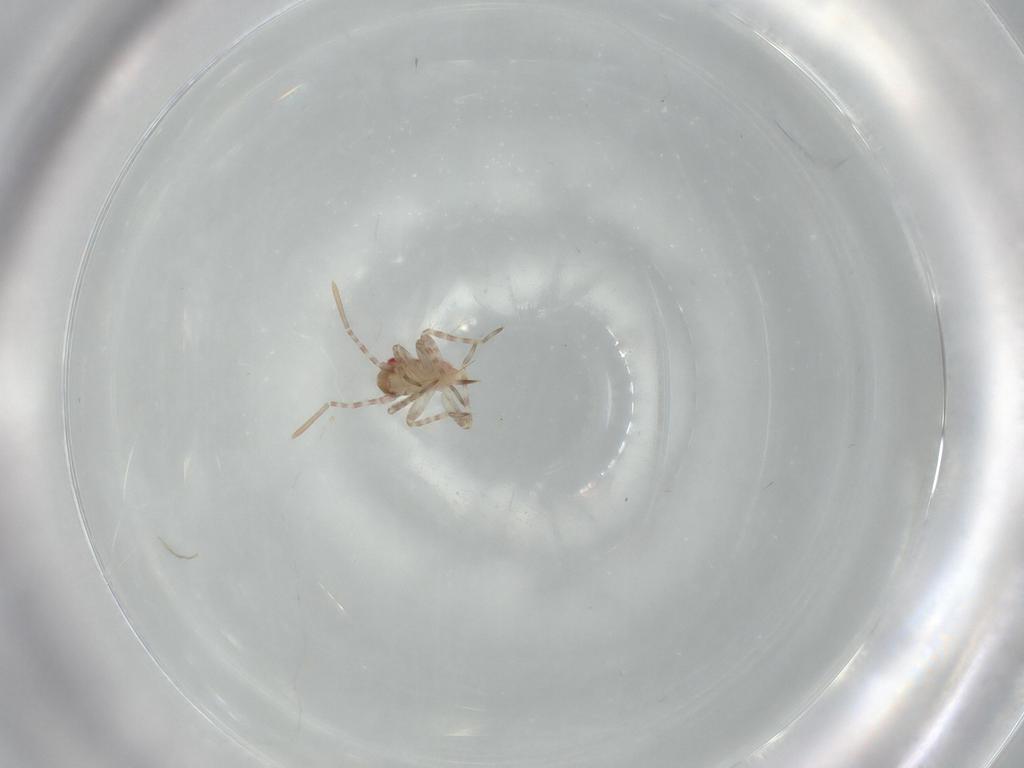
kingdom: Animalia
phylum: Arthropoda
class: Insecta
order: Hemiptera
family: Miridae
